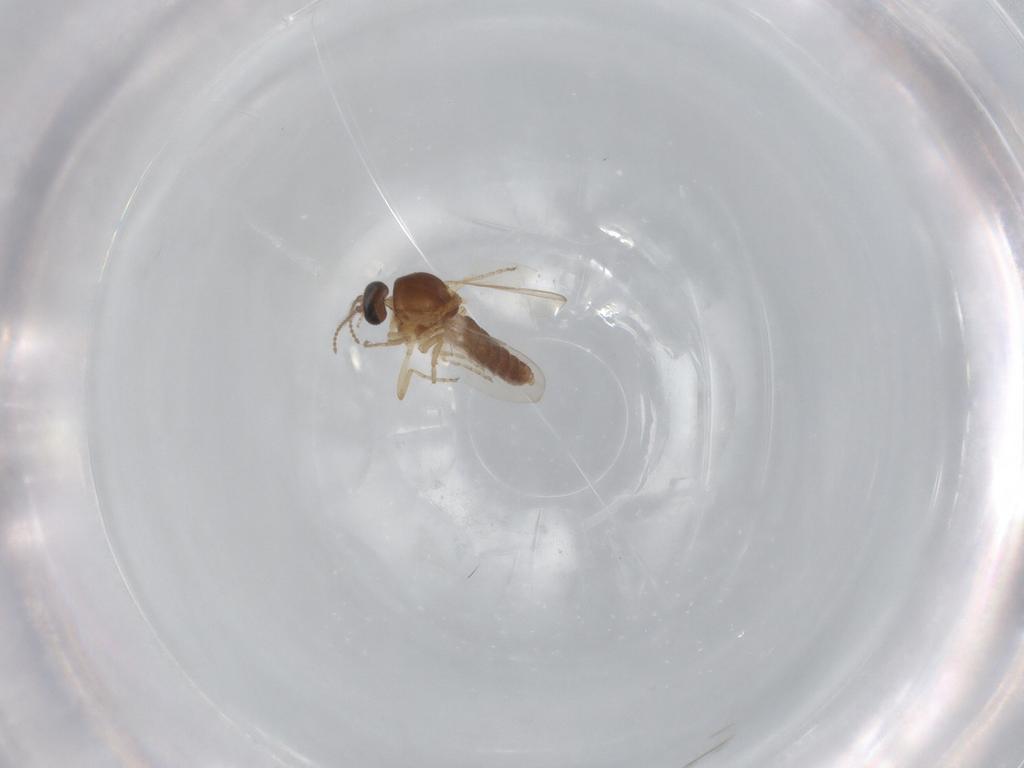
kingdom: Animalia
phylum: Arthropoda
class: Insecta
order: Diptera
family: Ceratopogonidae
